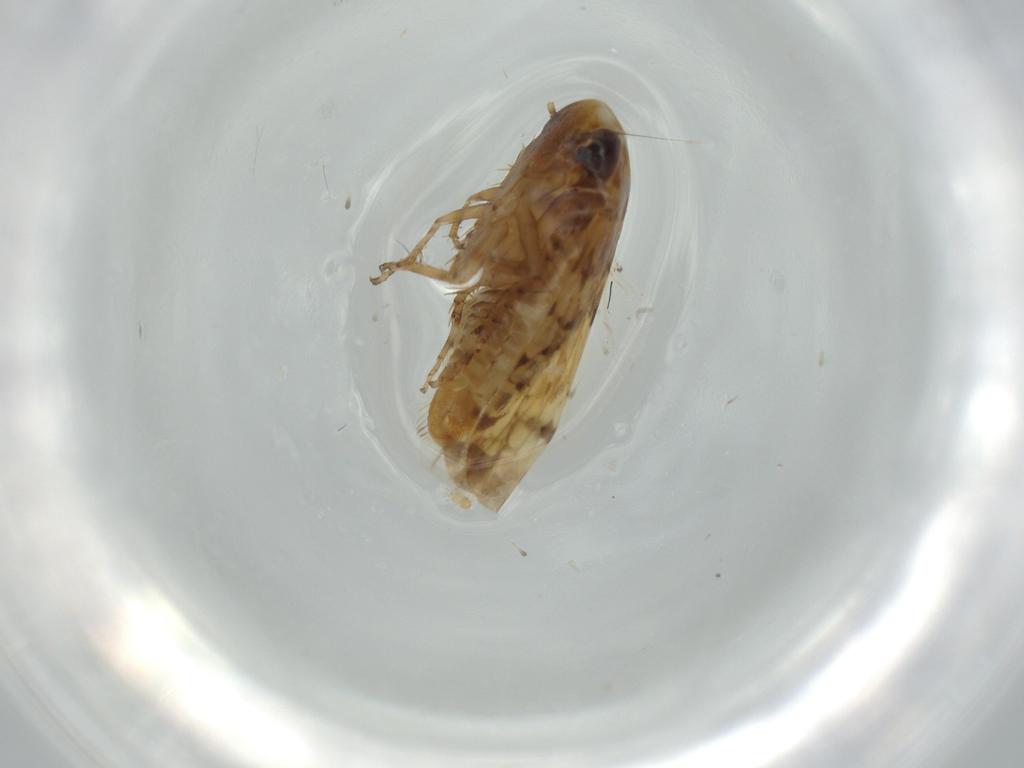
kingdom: Animalia
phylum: Arthropoda
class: Insecta
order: Hemiptera
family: Cicadellidae
